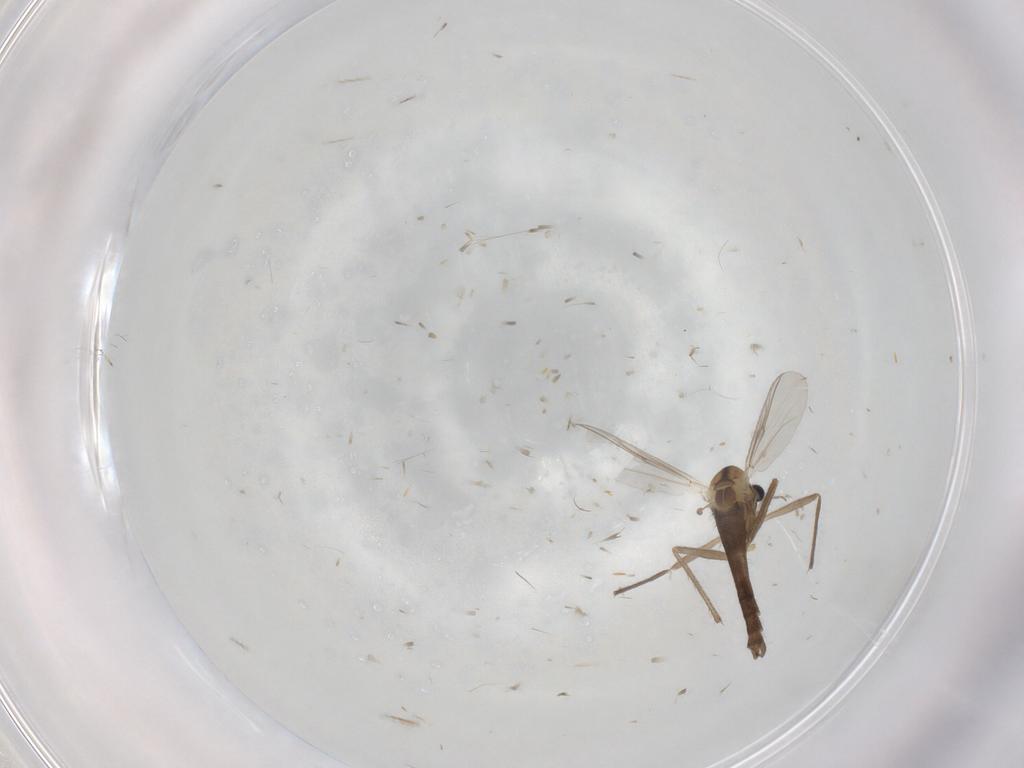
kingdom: Animalia
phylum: Arthropoda
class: Insecta
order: Diptera
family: Chironomidae
